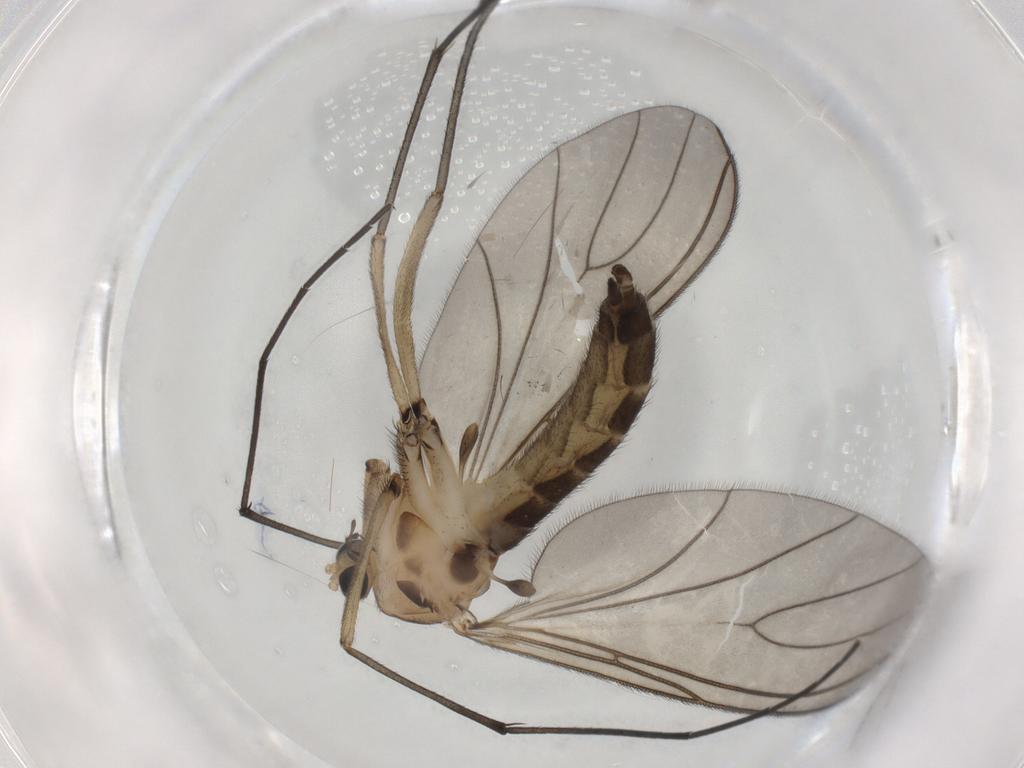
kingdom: Animalia
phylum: Arthropoda
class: Insecta
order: Diptera
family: Sciaridae
